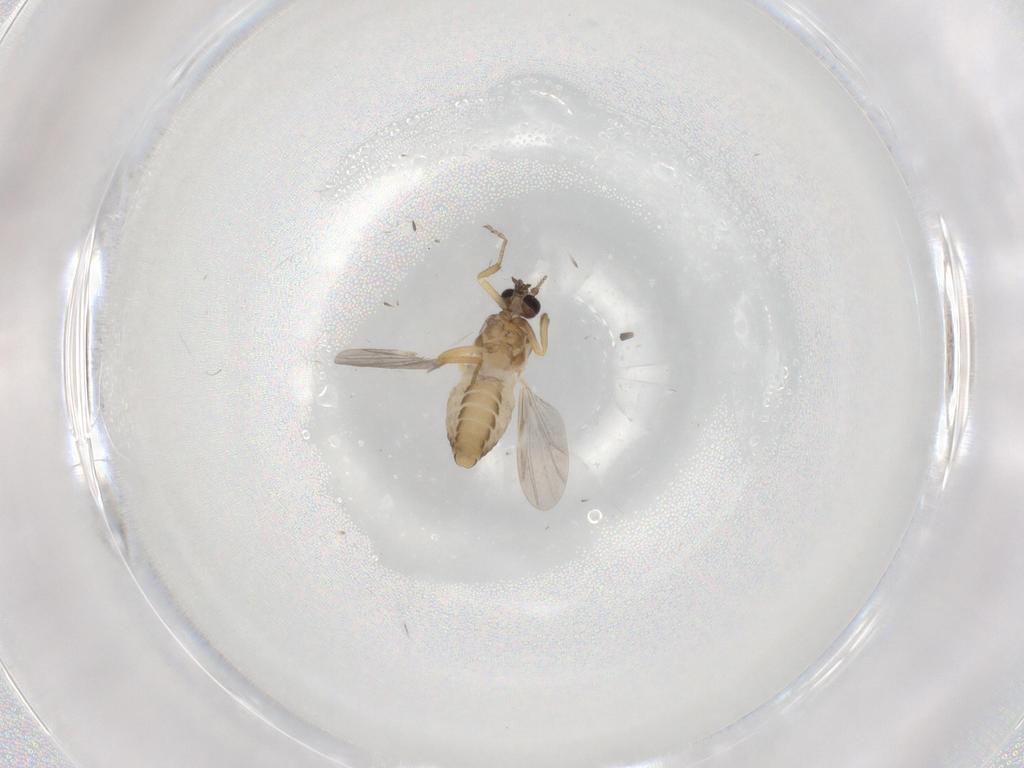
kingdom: Animalia
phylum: Arthropoda
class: Insecta
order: Diptera
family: Ceratopogonidae
